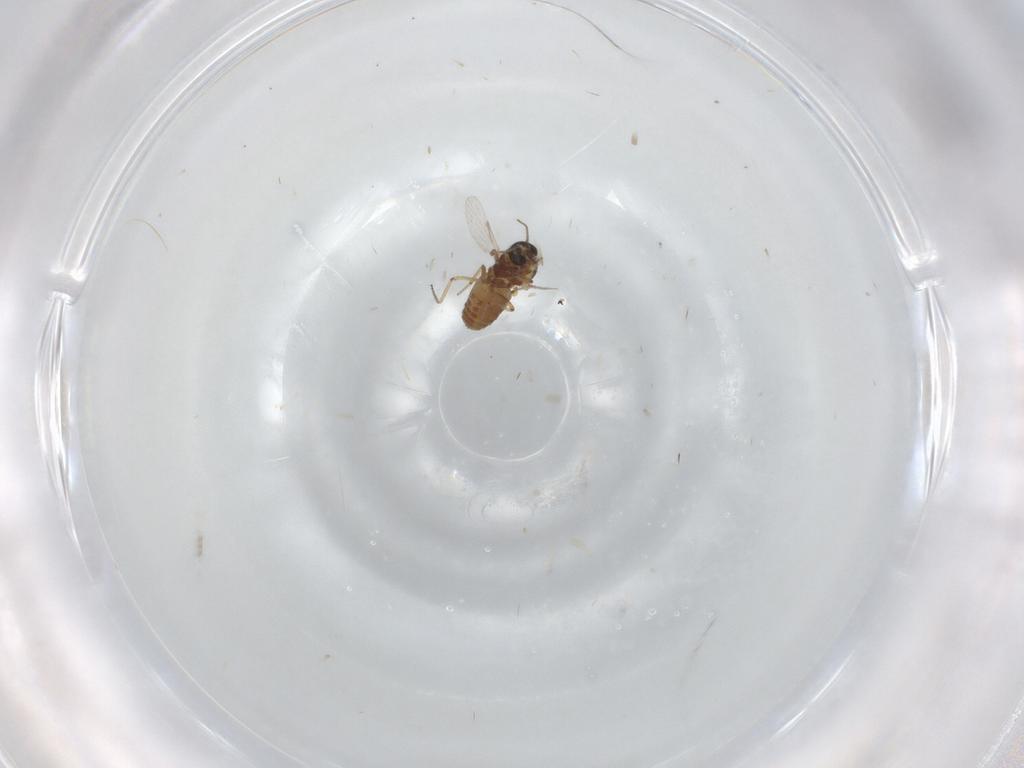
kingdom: Animalia
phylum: Arthropoda
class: Insecta
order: Diptera
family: Ceratopogonidae
